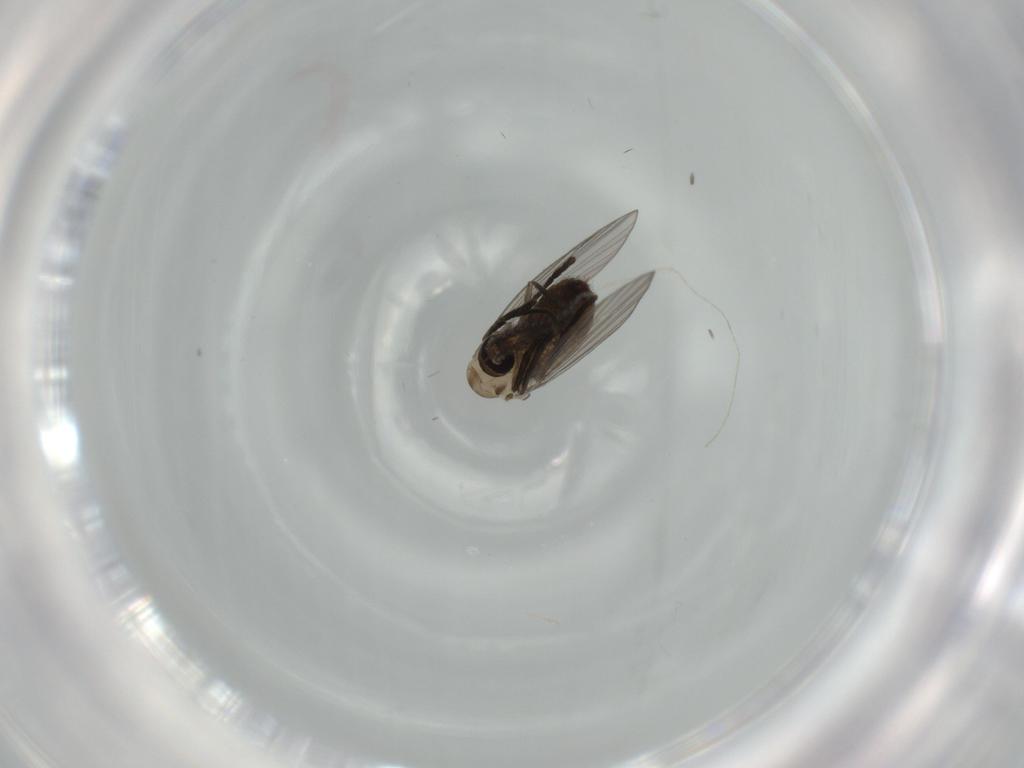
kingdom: Animalia
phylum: Arthropoda
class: Insecta
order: Diptera
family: Psychodidae
